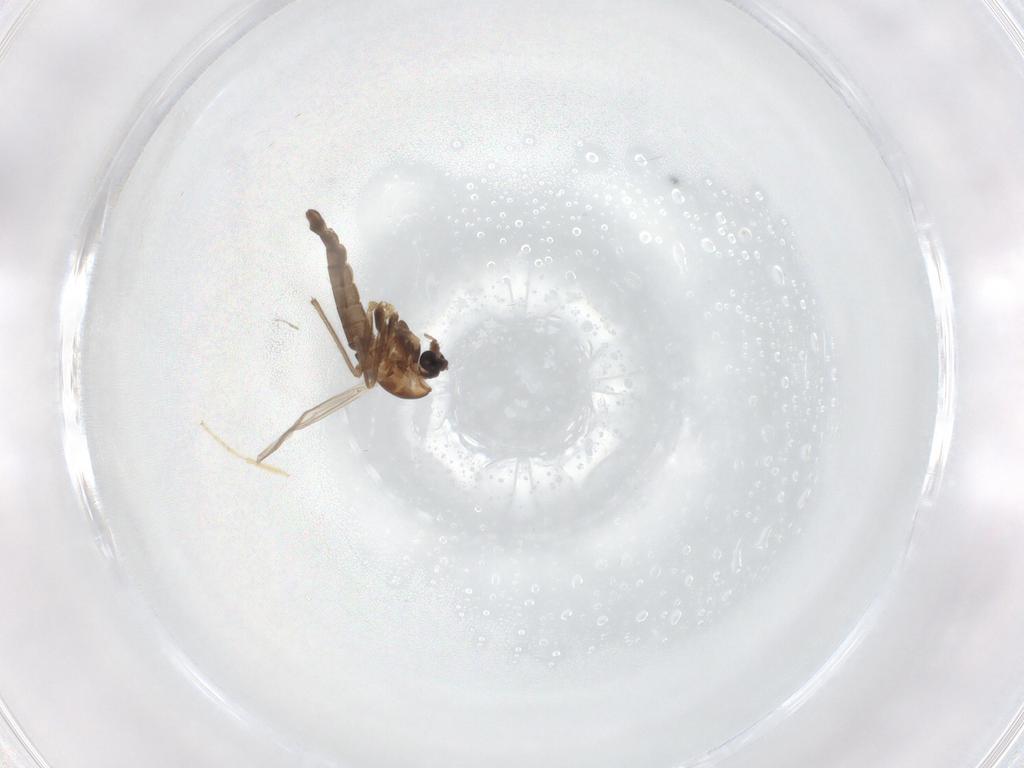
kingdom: Animalia
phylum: Arthropoda
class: Insecta
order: Diptera
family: Chironomidae
